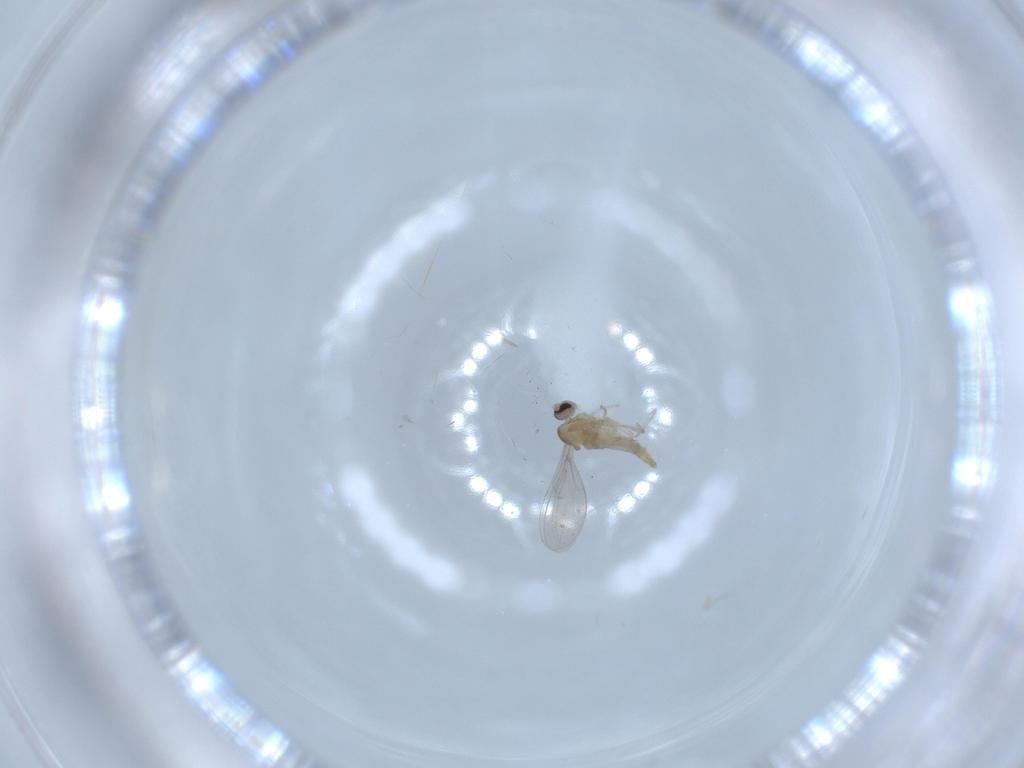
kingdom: Animalia
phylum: Arthropoda
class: Insecta
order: Diptera
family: Cecidomyiidae
